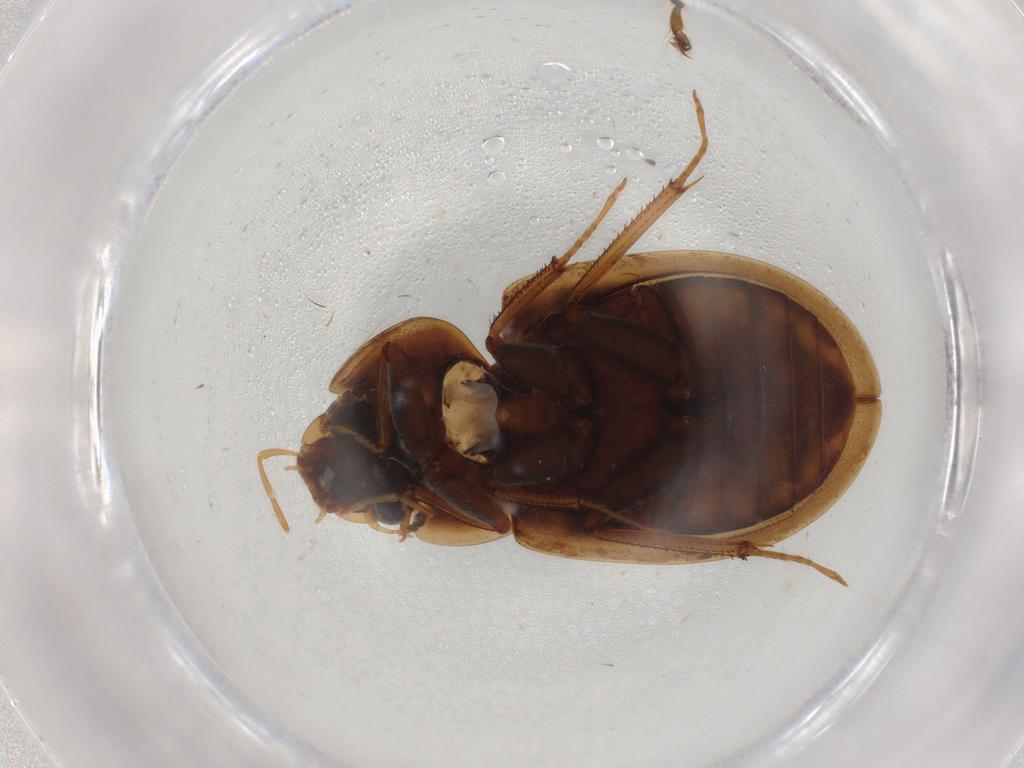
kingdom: Animalia
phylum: Arthropoda
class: Insecta
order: Coleoptera
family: Hydrophilidae
